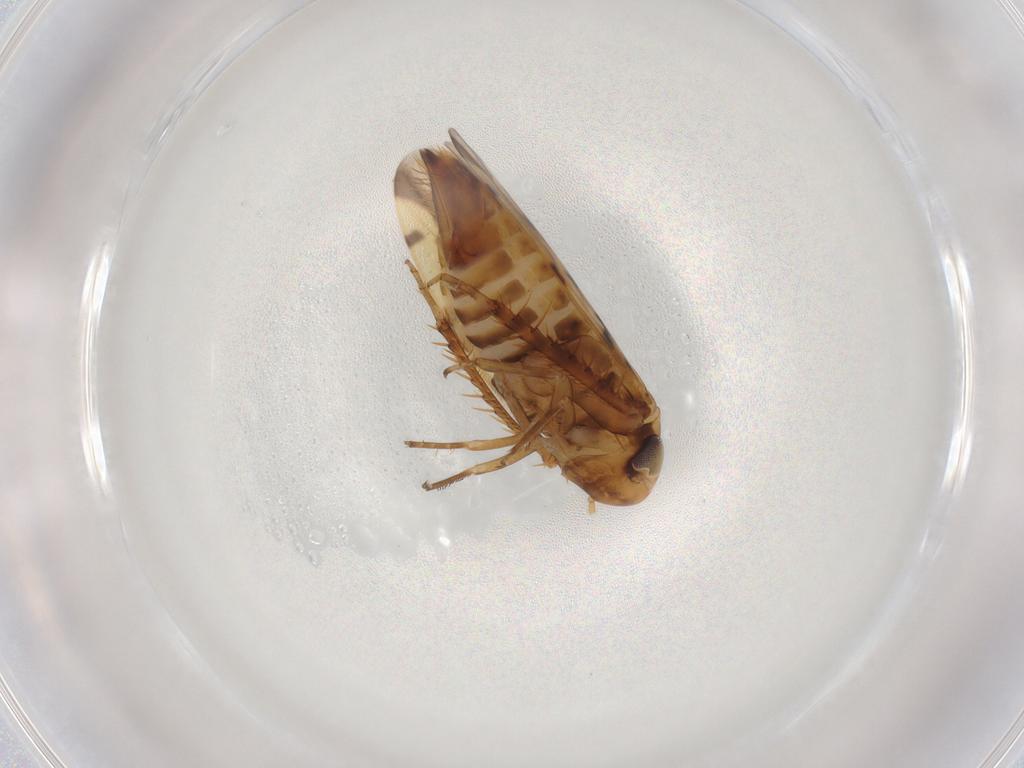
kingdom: Animalia
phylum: Arthropoda
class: Insecta
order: Hemiptera
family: Cicadellidae
